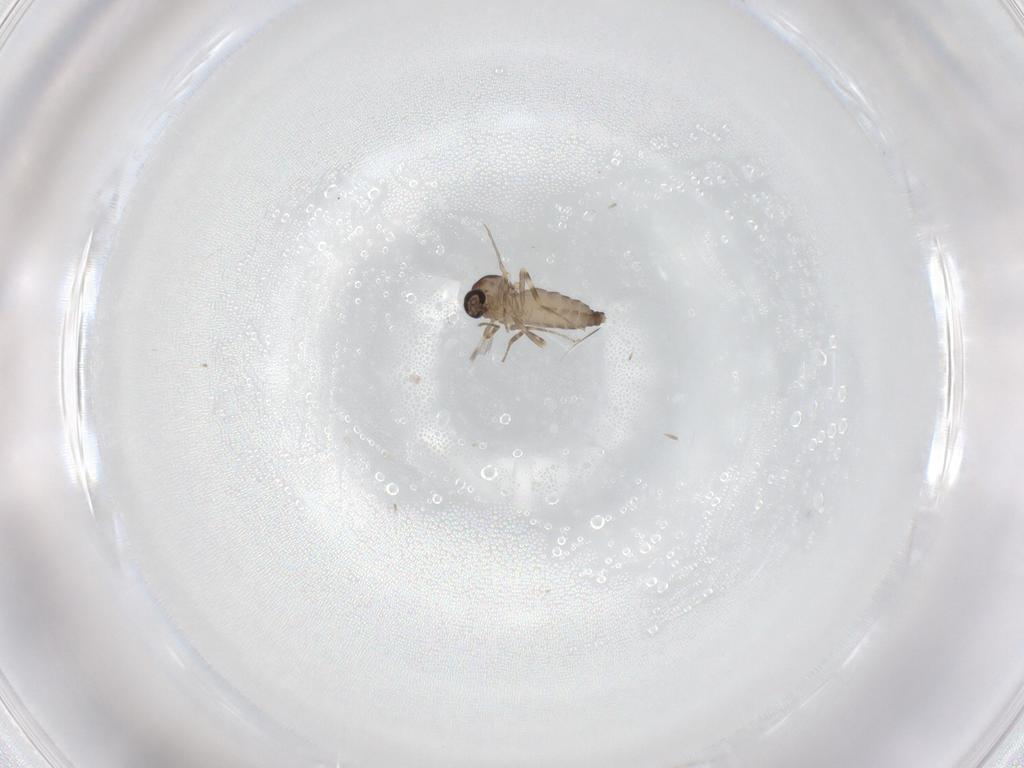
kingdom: Animalia
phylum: Arthropoda
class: Insecta
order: Diptera
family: Ceratopogonidae
